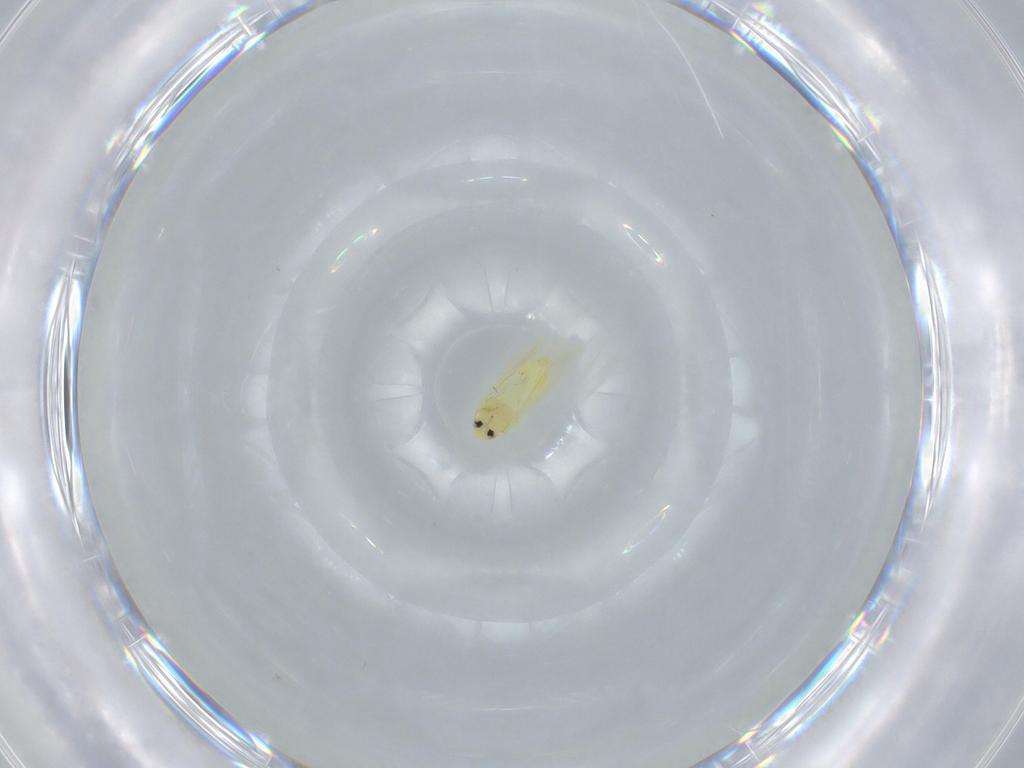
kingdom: Animalia
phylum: Arthropoda
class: Insecta
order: Hemiptera
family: Aleyrodidae
